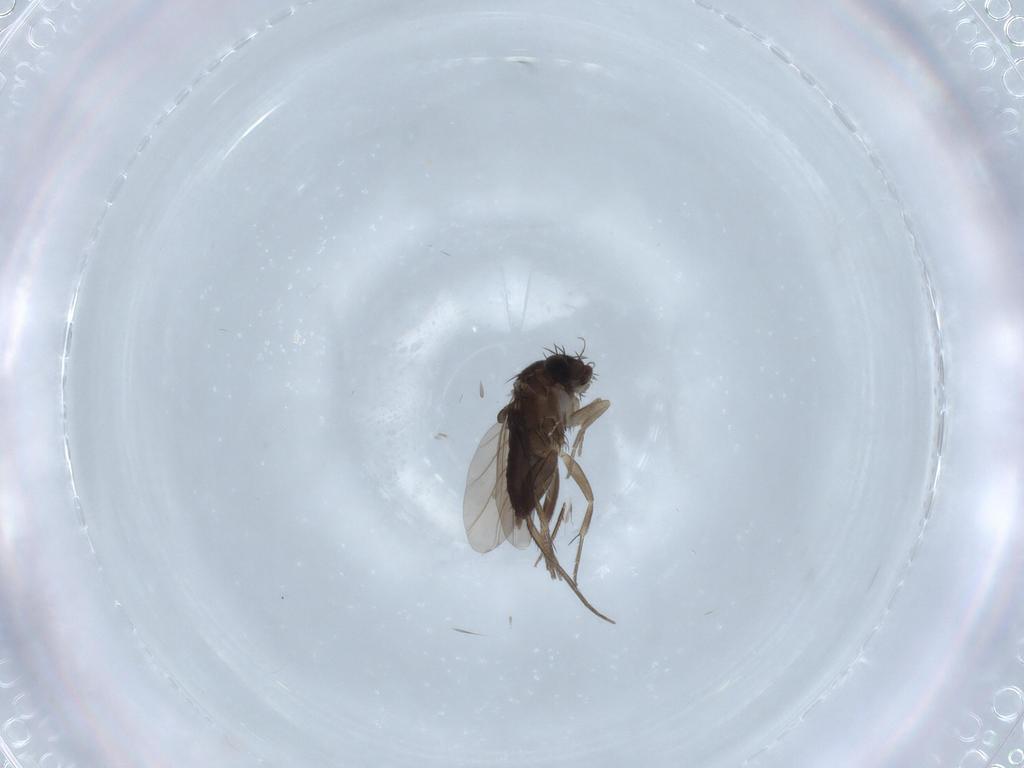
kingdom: Animalia
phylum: Arthropoda
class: Insecta
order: Diptera
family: Phoridae
